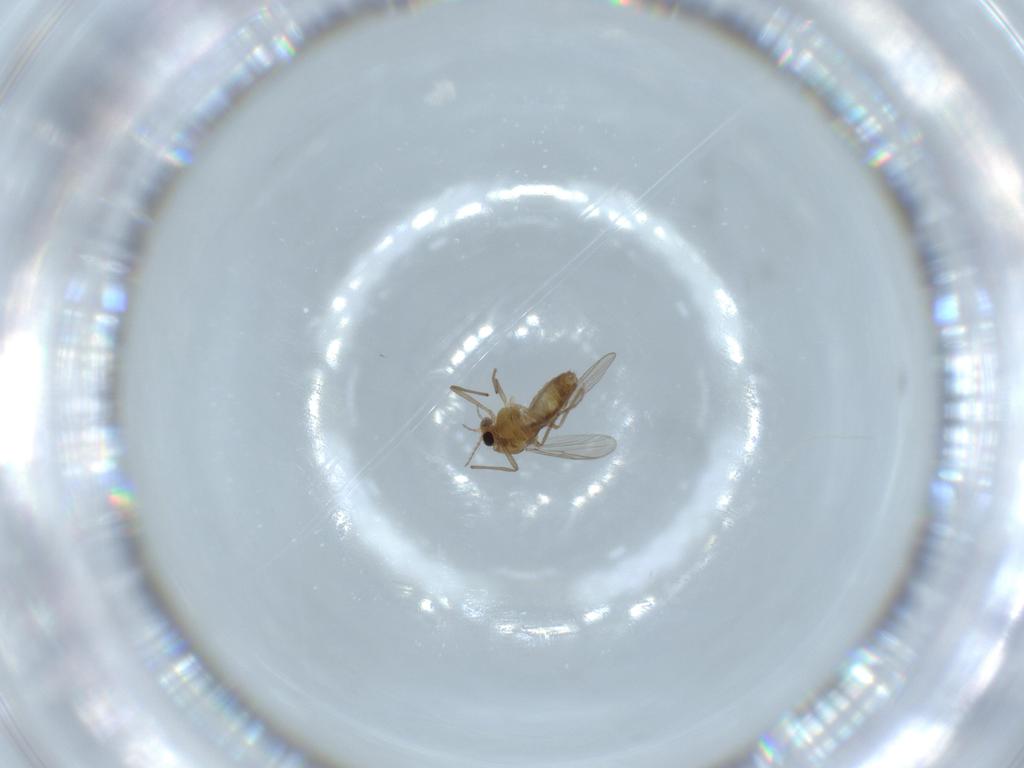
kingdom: Animalia
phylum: Arthropoda
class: Insecta
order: Diptera
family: Chironomidae
